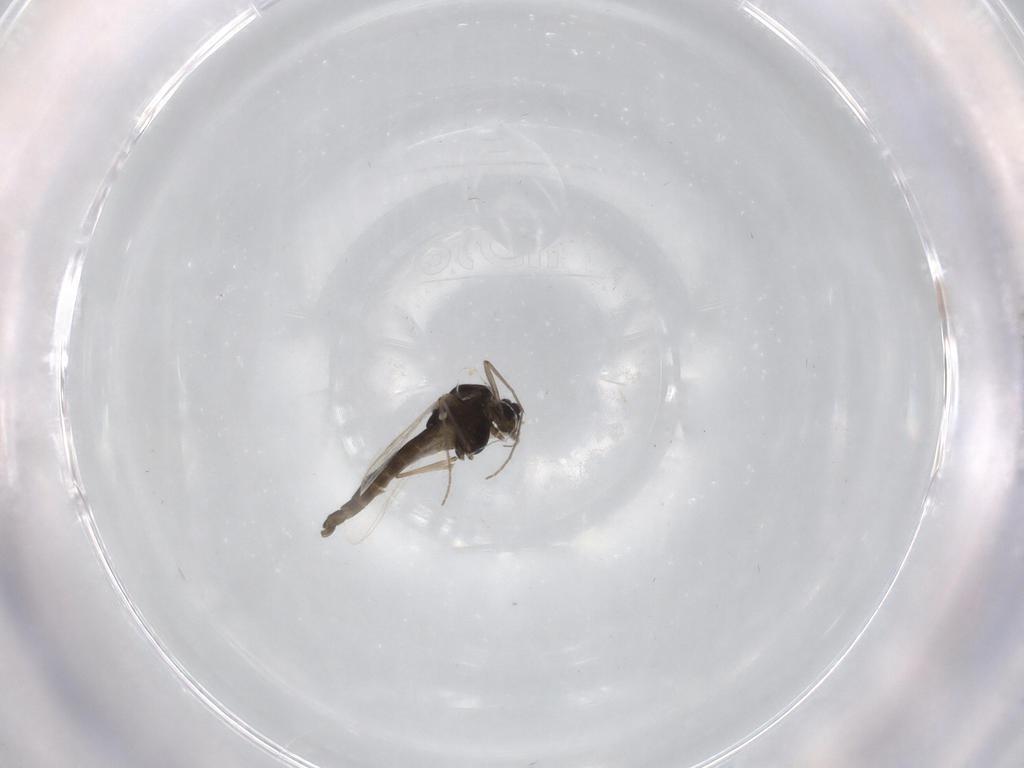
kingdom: Animalia
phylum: Arthropoda
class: Insecta
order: Diptera
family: Chironomidae
